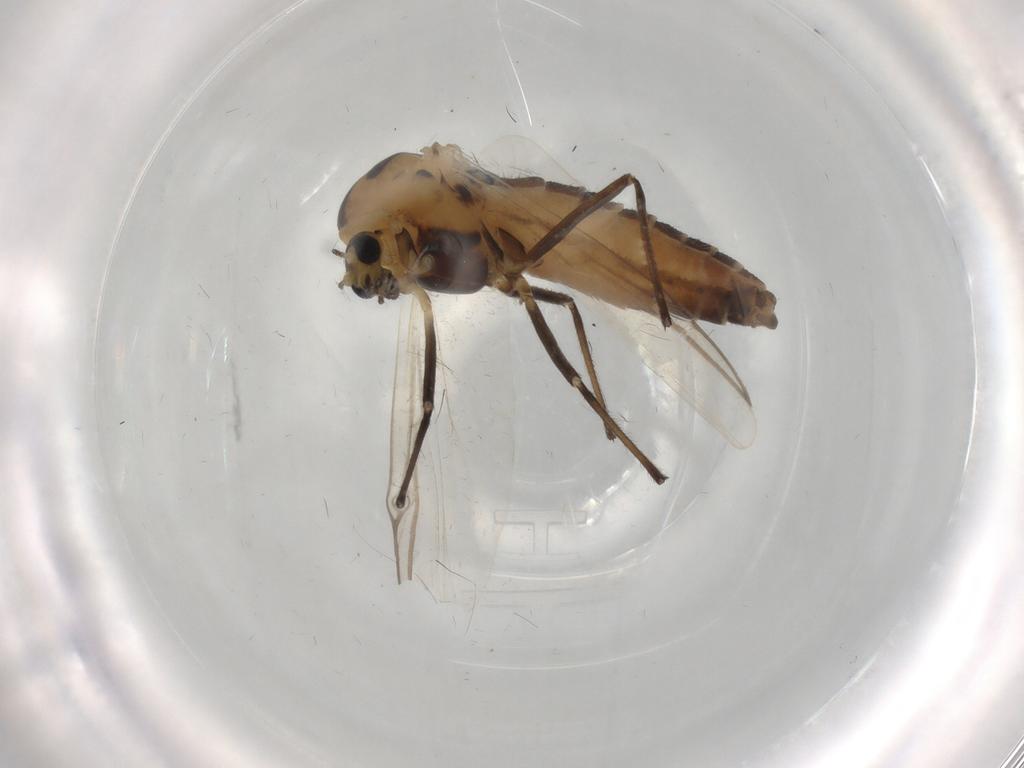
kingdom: Animalia
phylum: Arthropoda
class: Insecta
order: Diptera
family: Chironomidae
